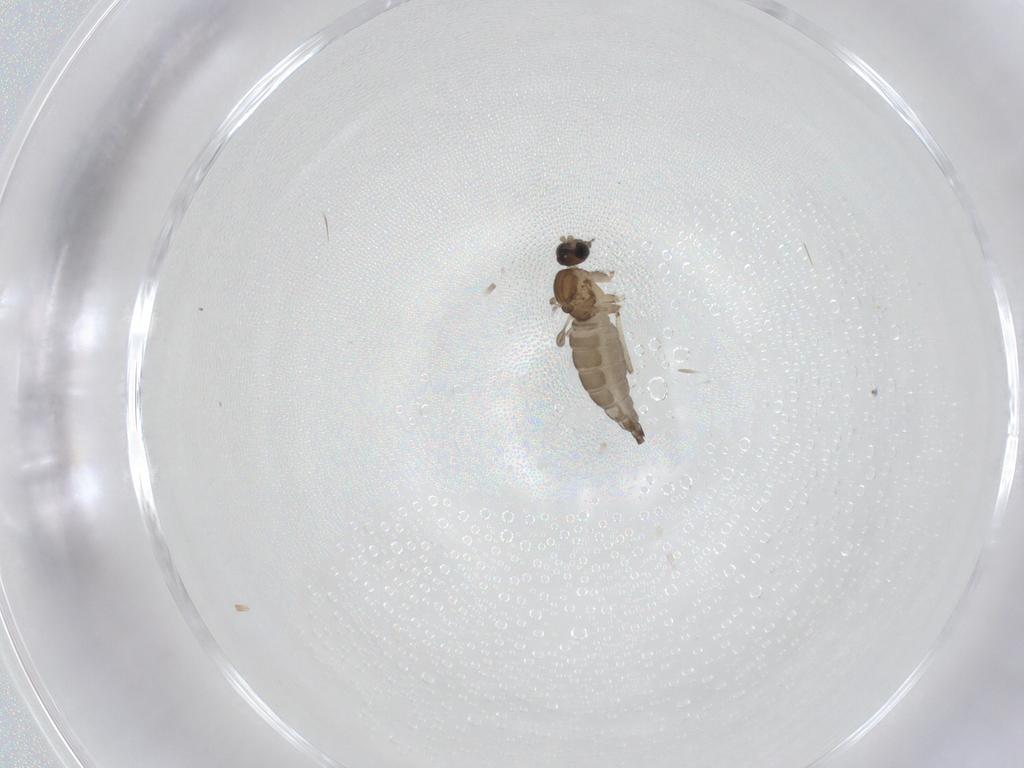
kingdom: Animalia
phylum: Arthropoda
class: Insecta
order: Diptera
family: Sciaridae
